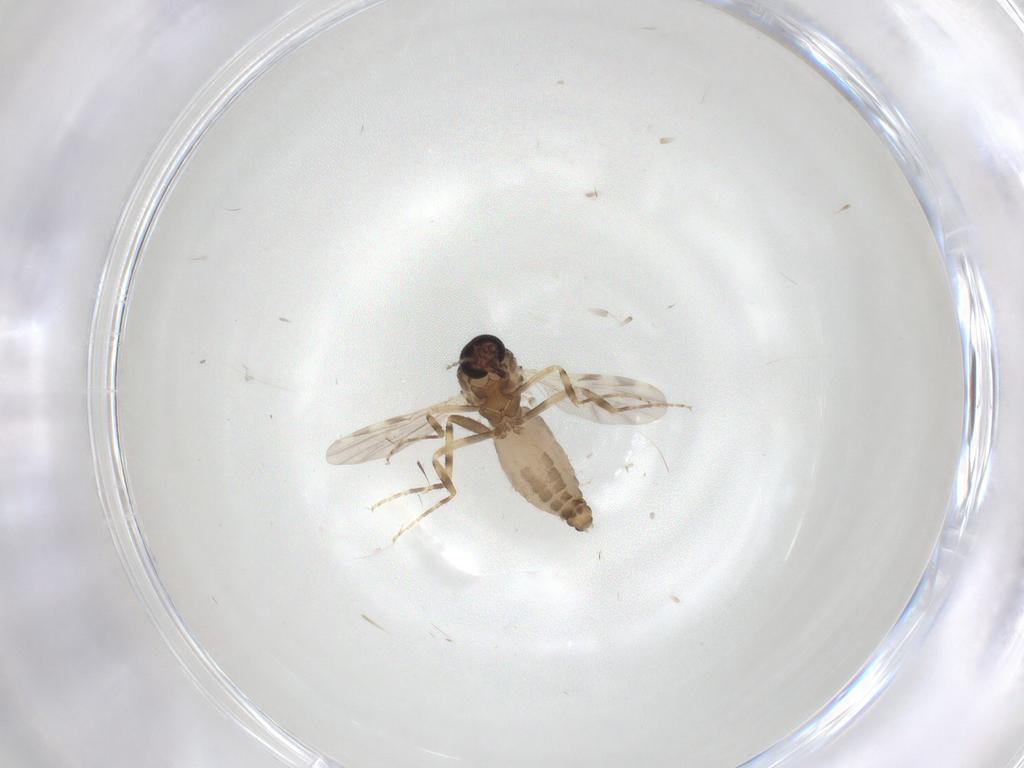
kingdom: Animalia
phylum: Arthropoda
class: Insecta
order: Diptera
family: Ceratopogonidae
